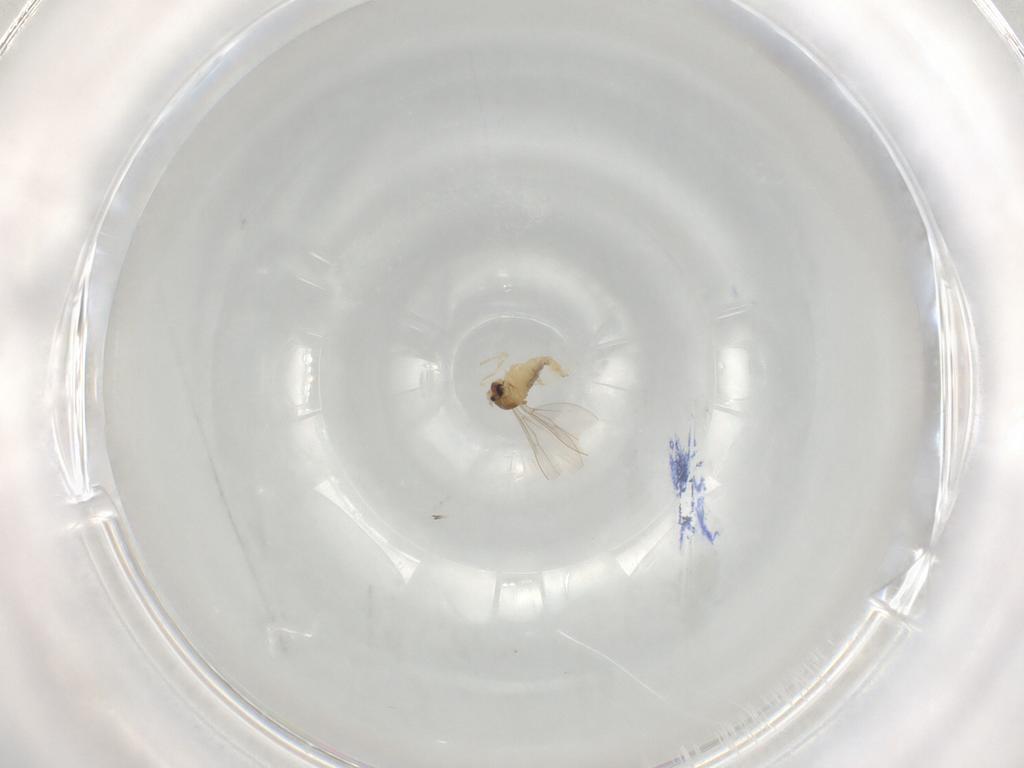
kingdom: Animalia
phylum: Arthropoda
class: Insecta
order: Diptera
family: Cecidomyiidae
